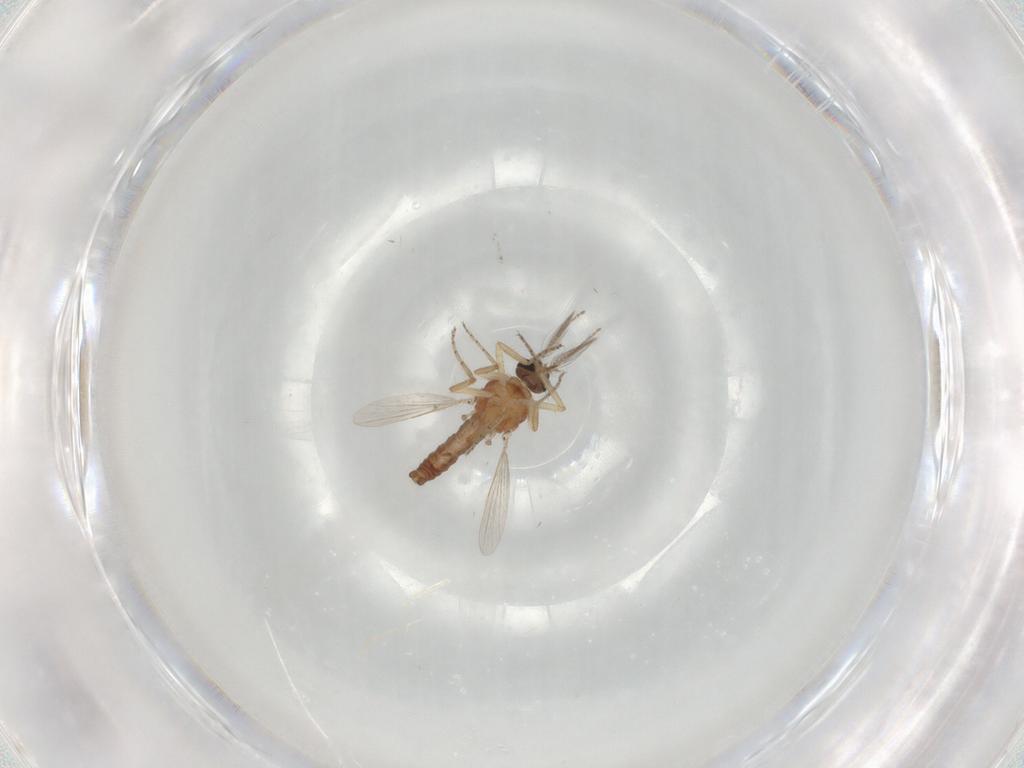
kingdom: Animalia
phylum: Arthropoda
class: Insecta
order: Diptera
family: Ceratopogonidae
